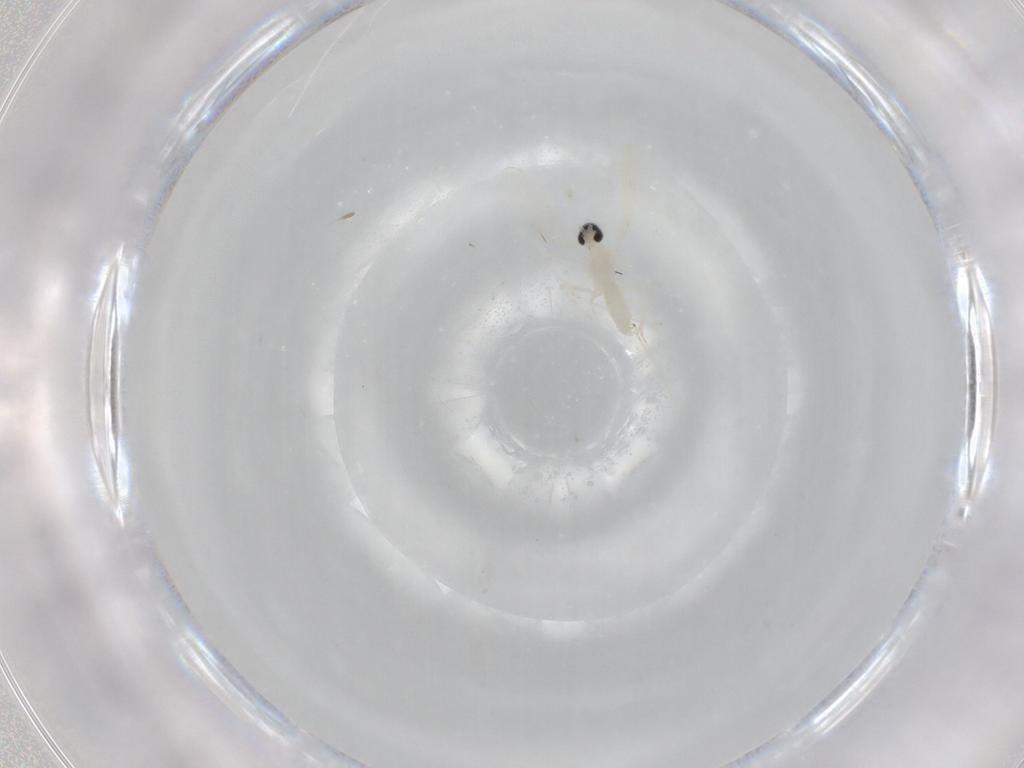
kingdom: Animalia
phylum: Arthropoda
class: Insecta
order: Diptera
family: Cecidomyiidae
